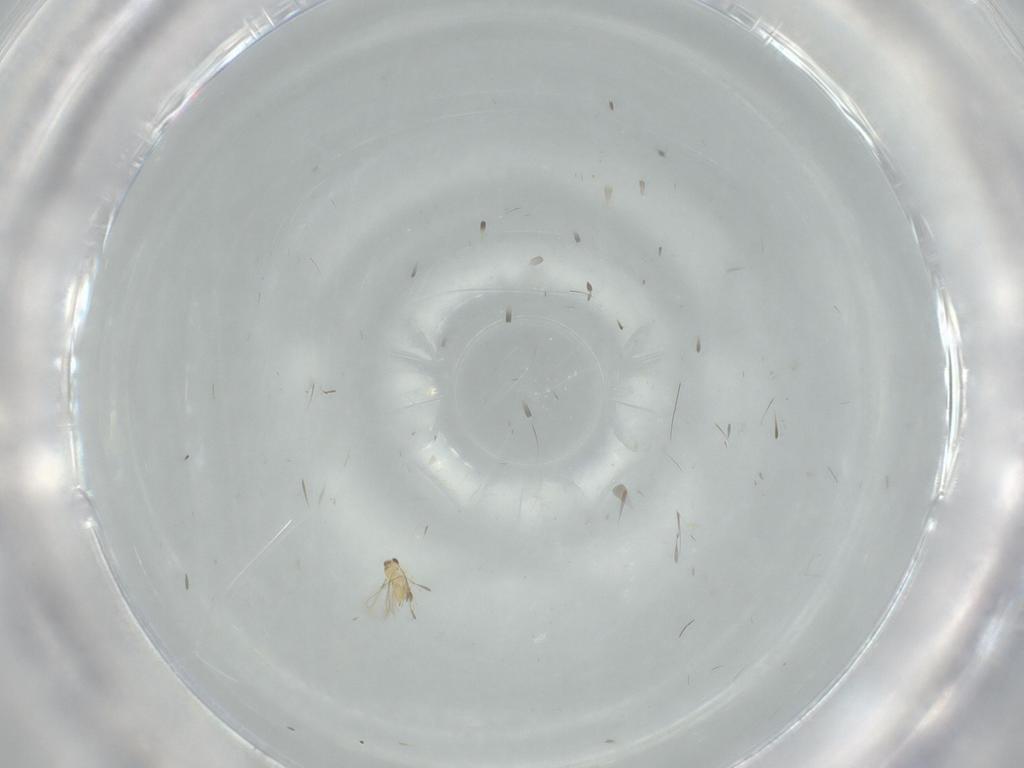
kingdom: Animalia
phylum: Arthropoda
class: Insecta
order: Hymenoptera
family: Mymaridae
